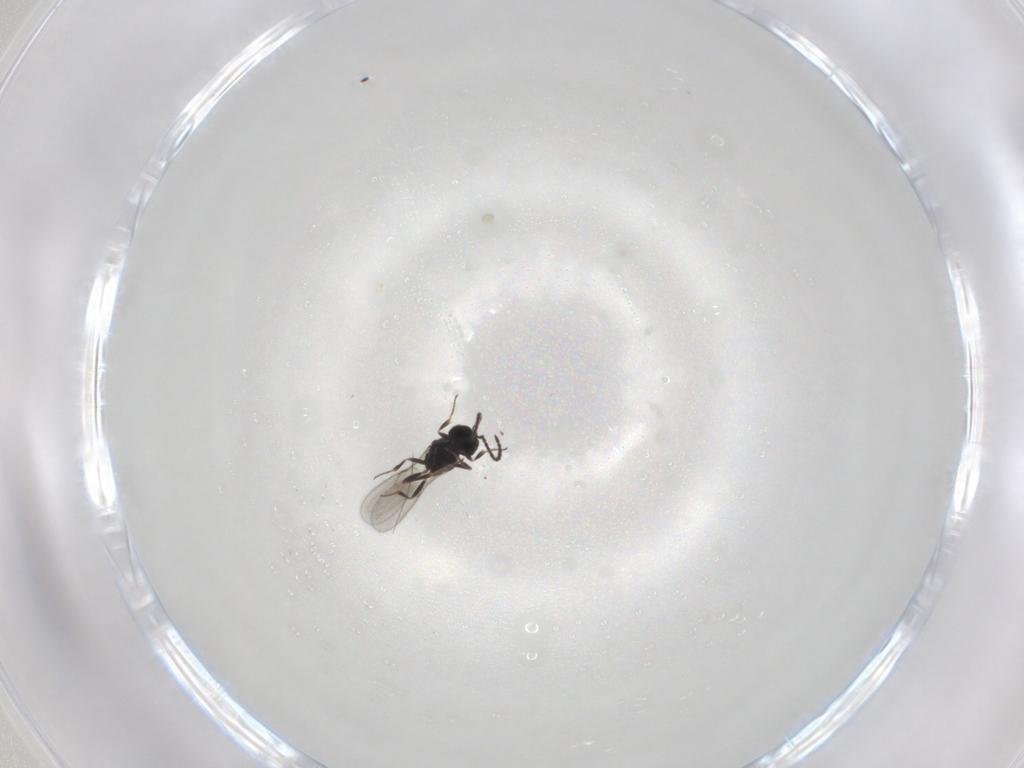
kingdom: Animalia
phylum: Arthropoda
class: Insecta
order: Hymenoptera
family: Scelionidae
